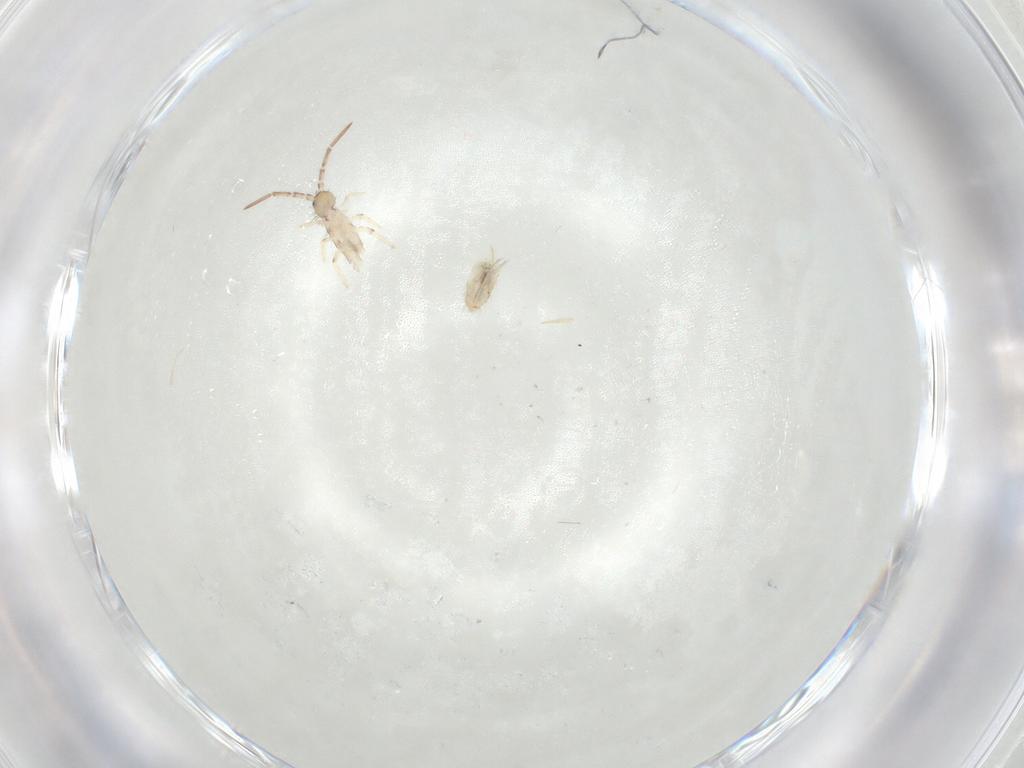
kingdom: Animalia
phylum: Arthropoda
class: Collembola
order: Entomobryomorpha
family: Entomobryidae
